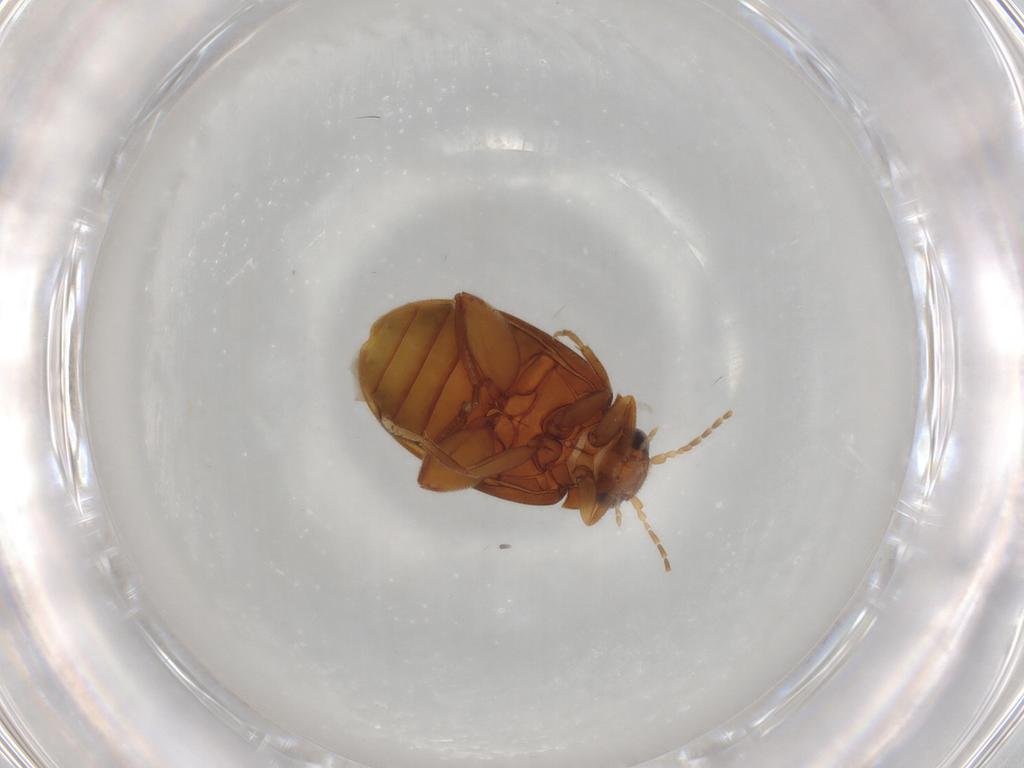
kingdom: Animalia
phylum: Arthropoda
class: Insecta
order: Coleoptera
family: Scirtidae
